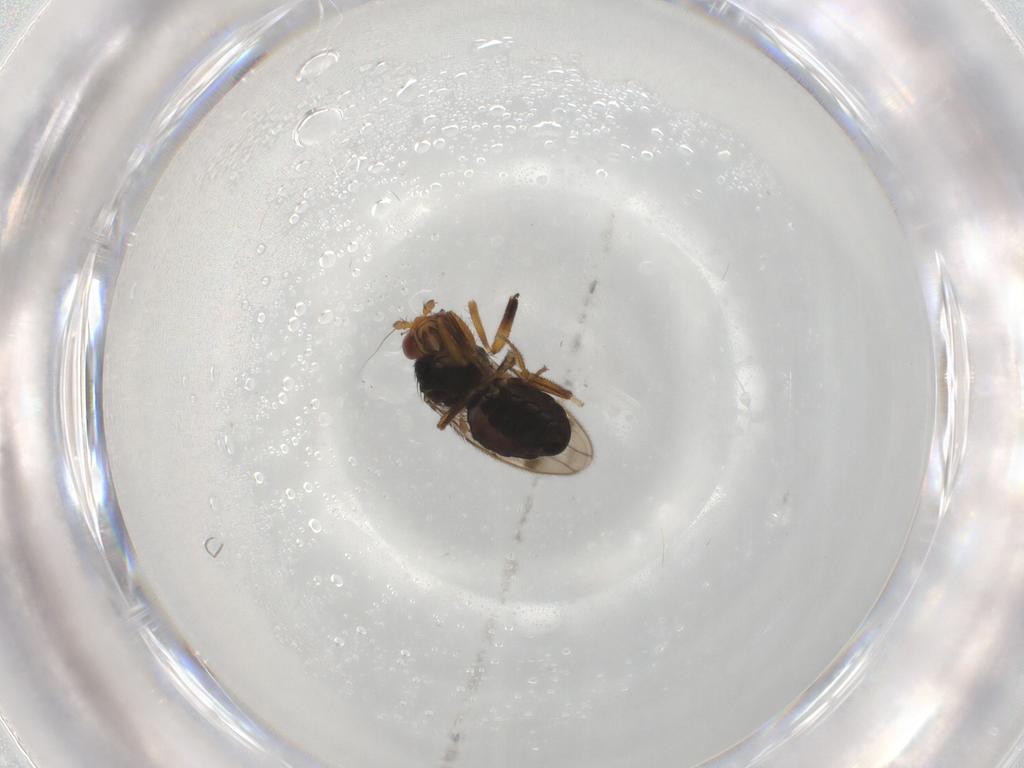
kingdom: Animalia
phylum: Arthropoda
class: Insecta
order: Diptera
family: Sphaeroceridae
